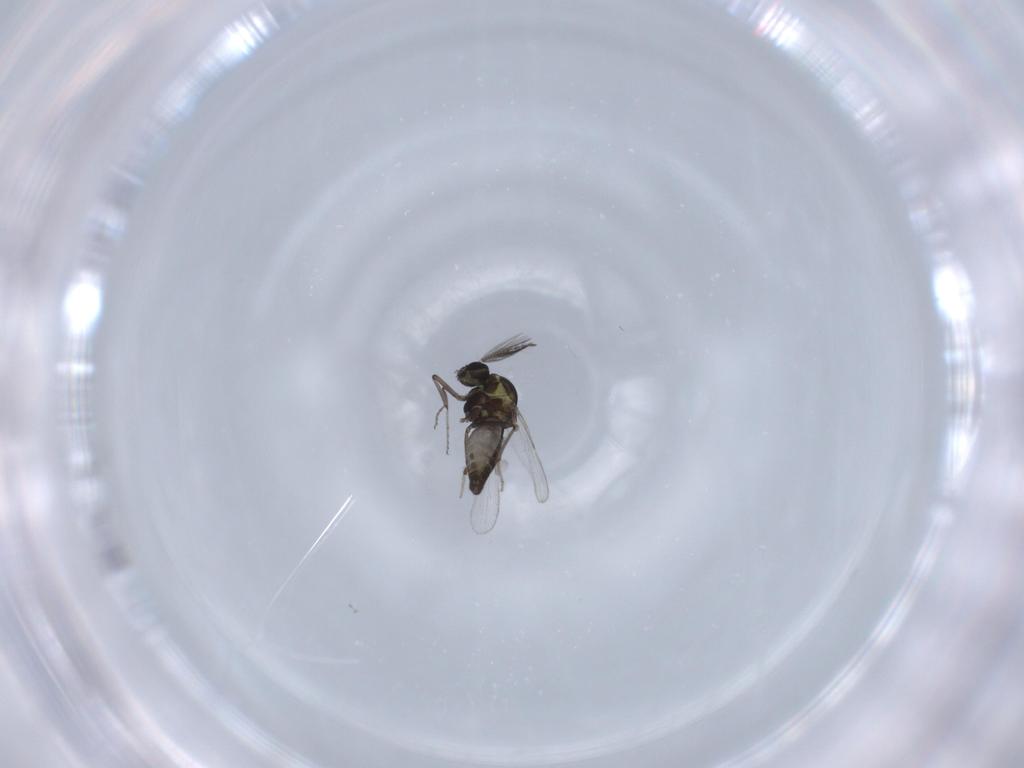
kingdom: Animalia
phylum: Arthropoda
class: Insecta
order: Diptera
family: Ceratopogonidae
